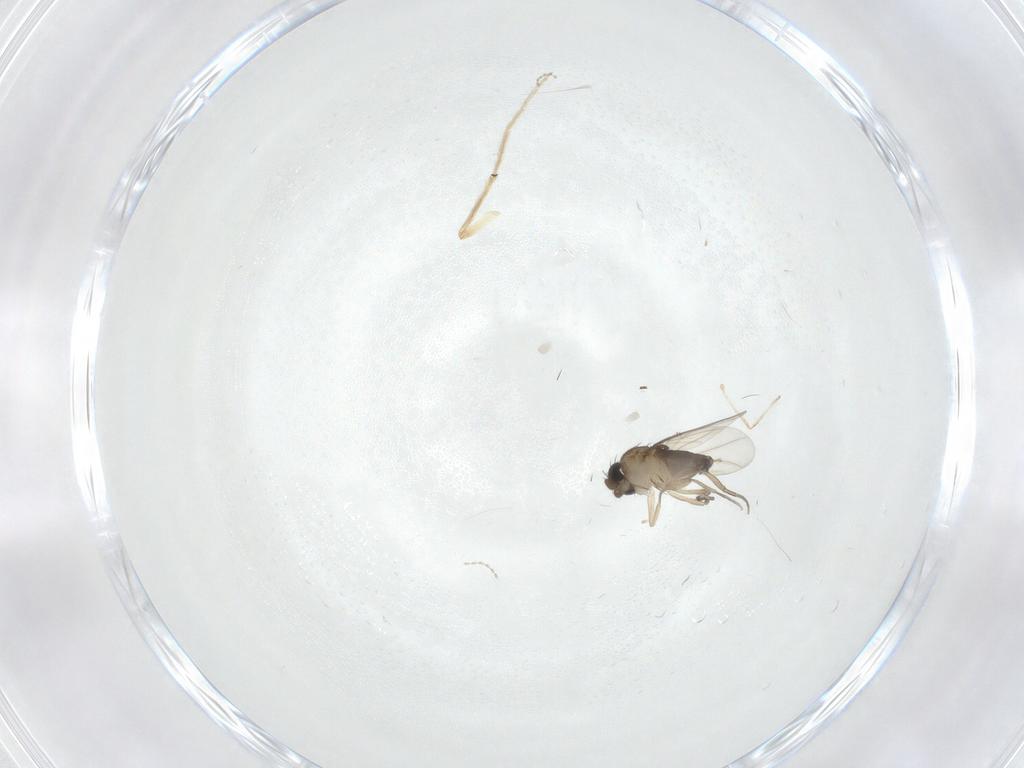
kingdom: Animalia
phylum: Arthropoda
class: Insecta
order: Diptera
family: Phoridae
